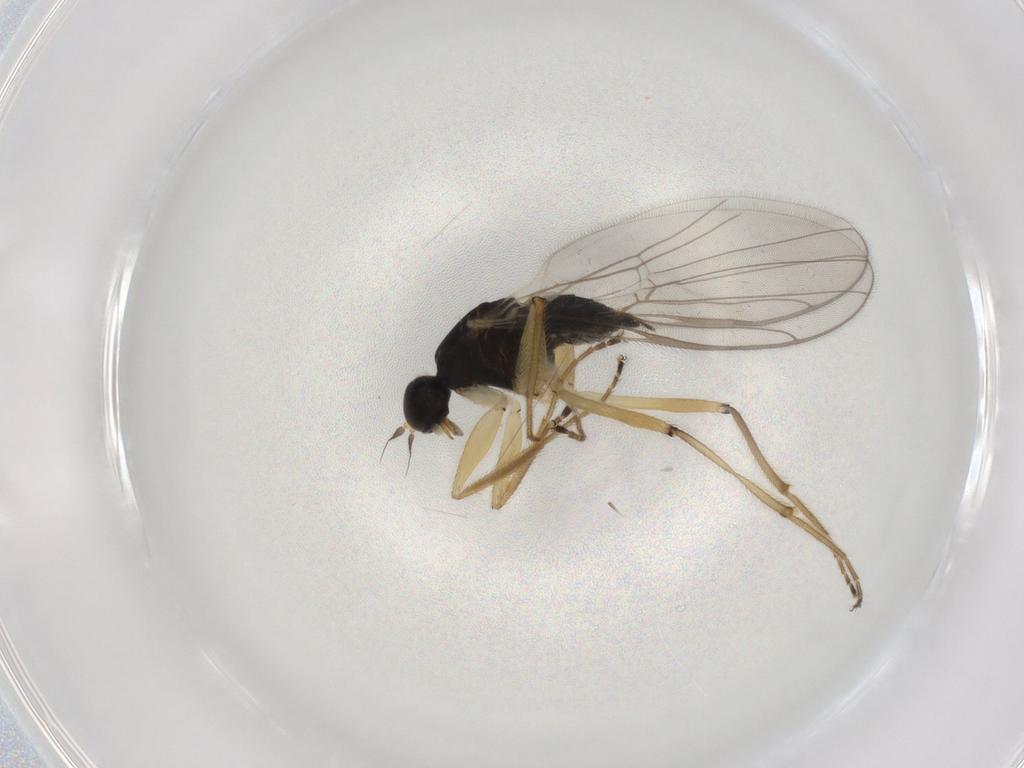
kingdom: Animalia
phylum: Arthropoda
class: Insecta
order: Diptera
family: Hybotidae
